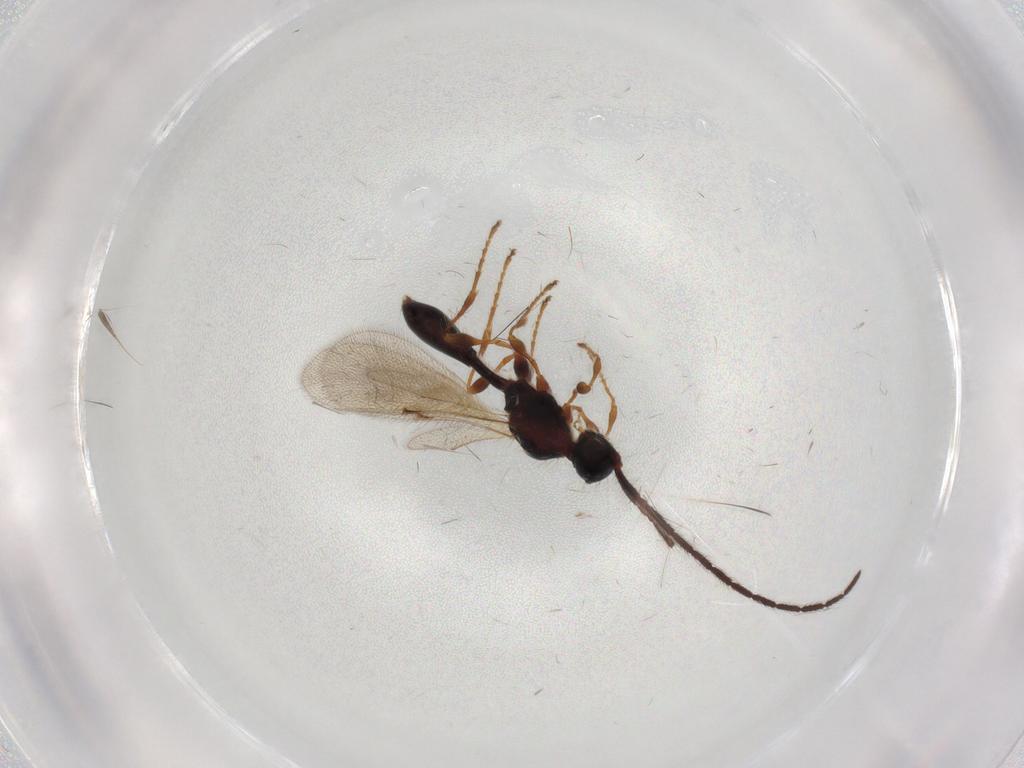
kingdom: Animalia
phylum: Arthropoda
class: Insecta
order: Hymenoptera
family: Diapriidae
